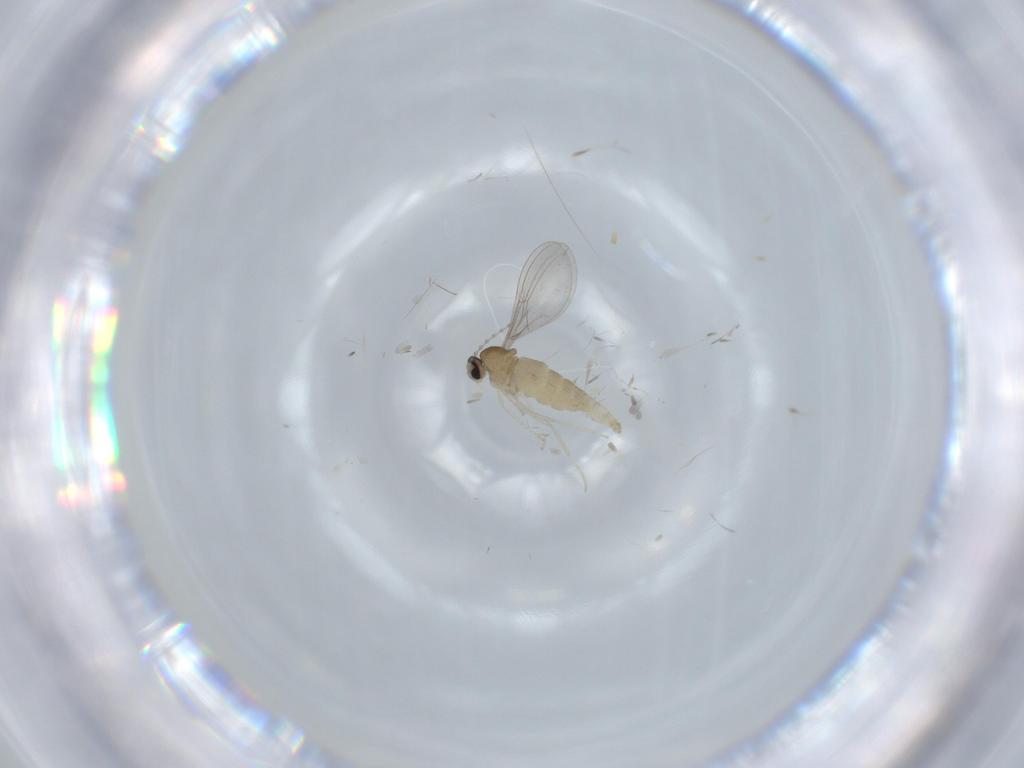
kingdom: Animalia
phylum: Arthropoda
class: Insecta
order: Diptera
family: Cecidomyiidae
